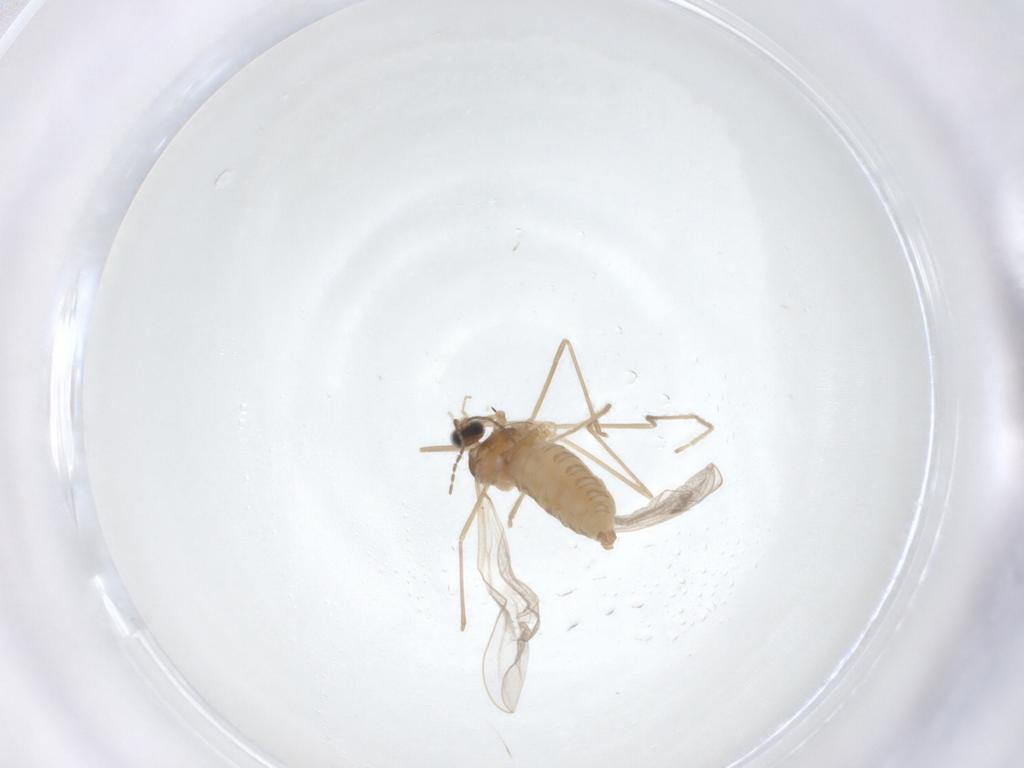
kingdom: Animalia
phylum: Arthropoda
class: Insecta
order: Diptera
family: Cecidomyiidae
